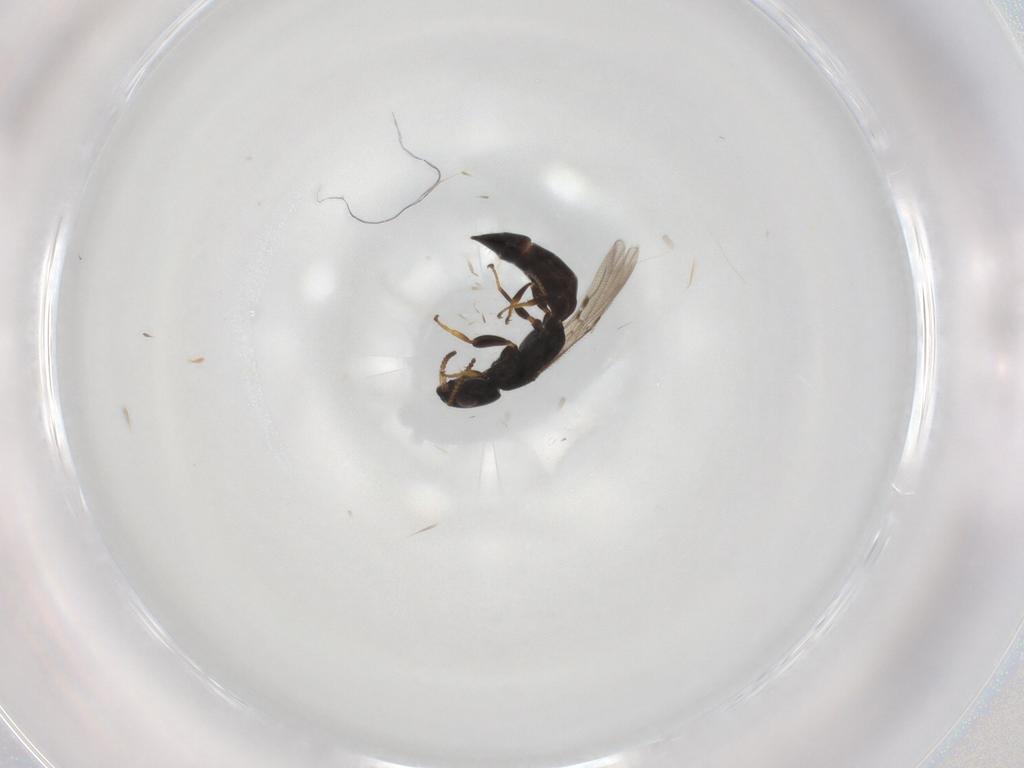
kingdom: Animalia
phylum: Arthropoda
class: Insecta
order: Hymenoptera
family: Bethylidae
